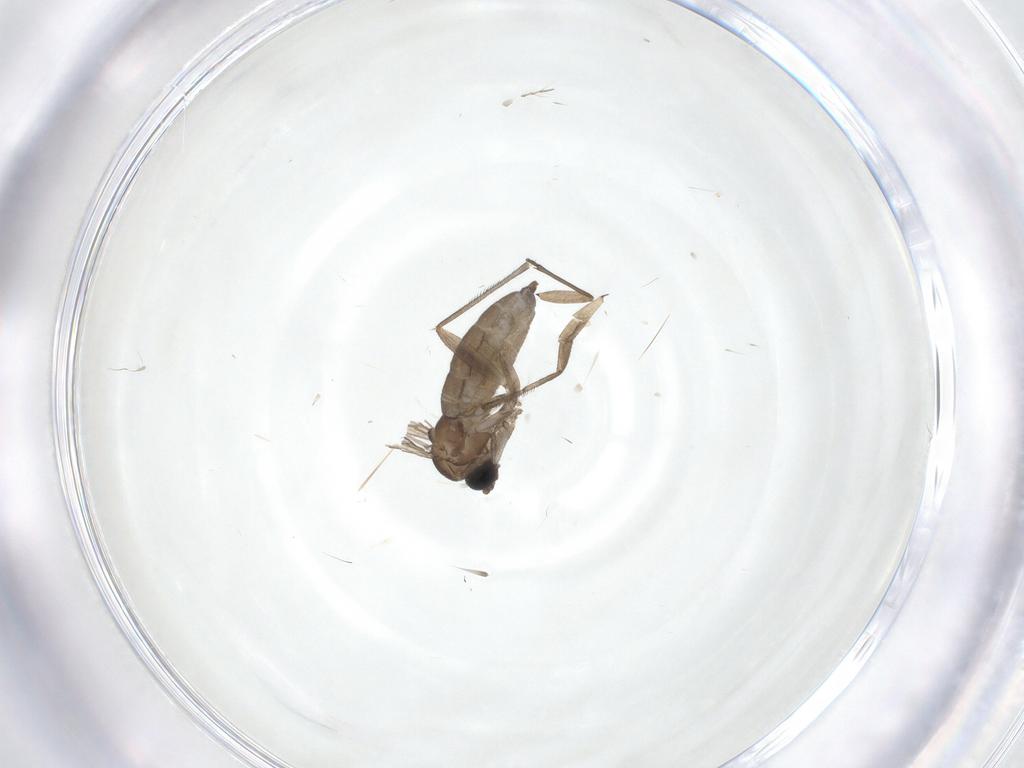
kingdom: Animalia
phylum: Arthropoda
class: Insecta
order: Diptera
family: Sciaridae
